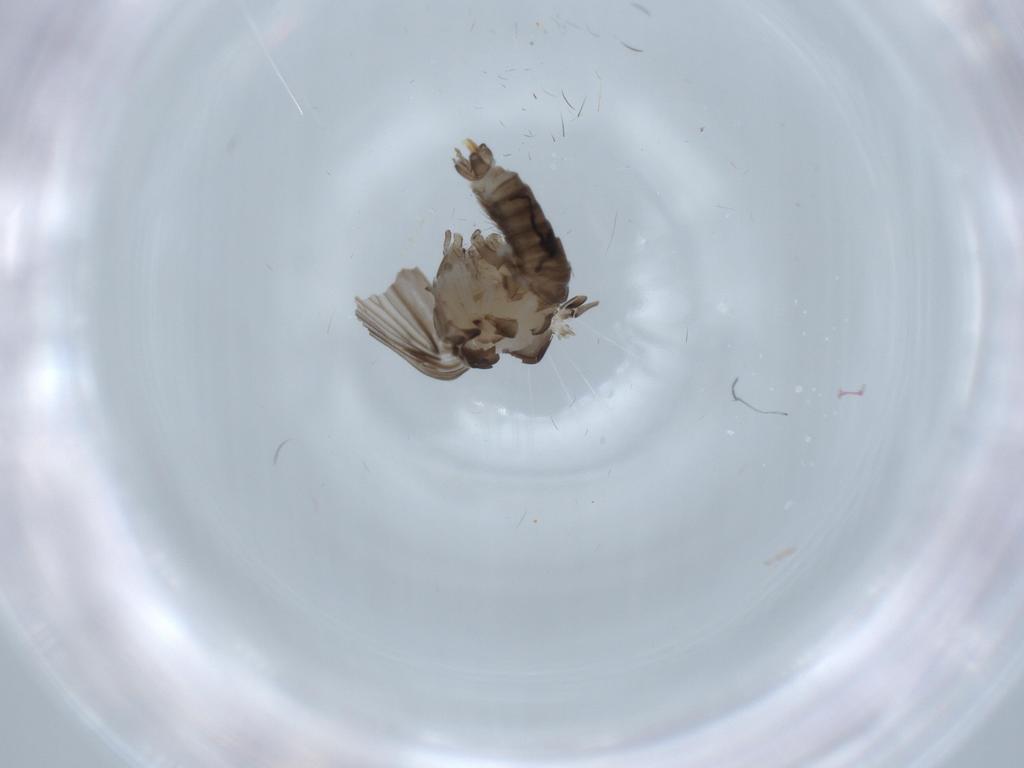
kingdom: Animalia
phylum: Arthropoda
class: Insecta
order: Diptera
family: Psychodidae
